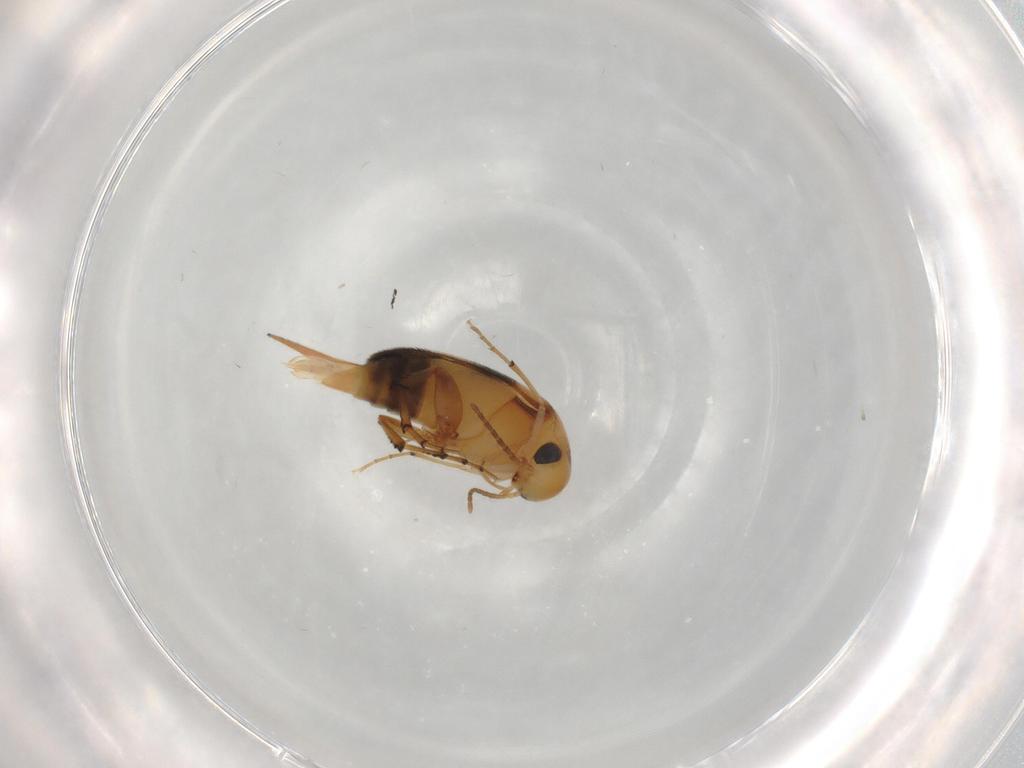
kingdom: Animalia
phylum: Arthropoda
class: Insecta
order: Coleoptera
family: Mordellidae
